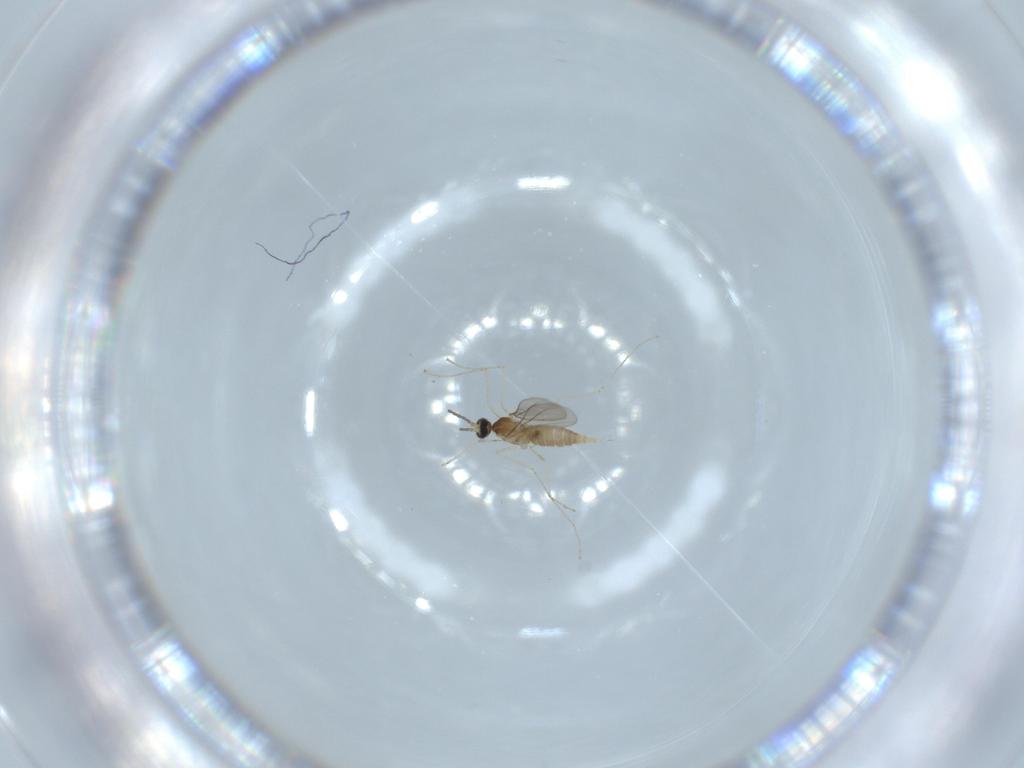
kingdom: Animalia
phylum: Arthropoda
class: Insecta
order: Diptera
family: Cecidomyiidae
